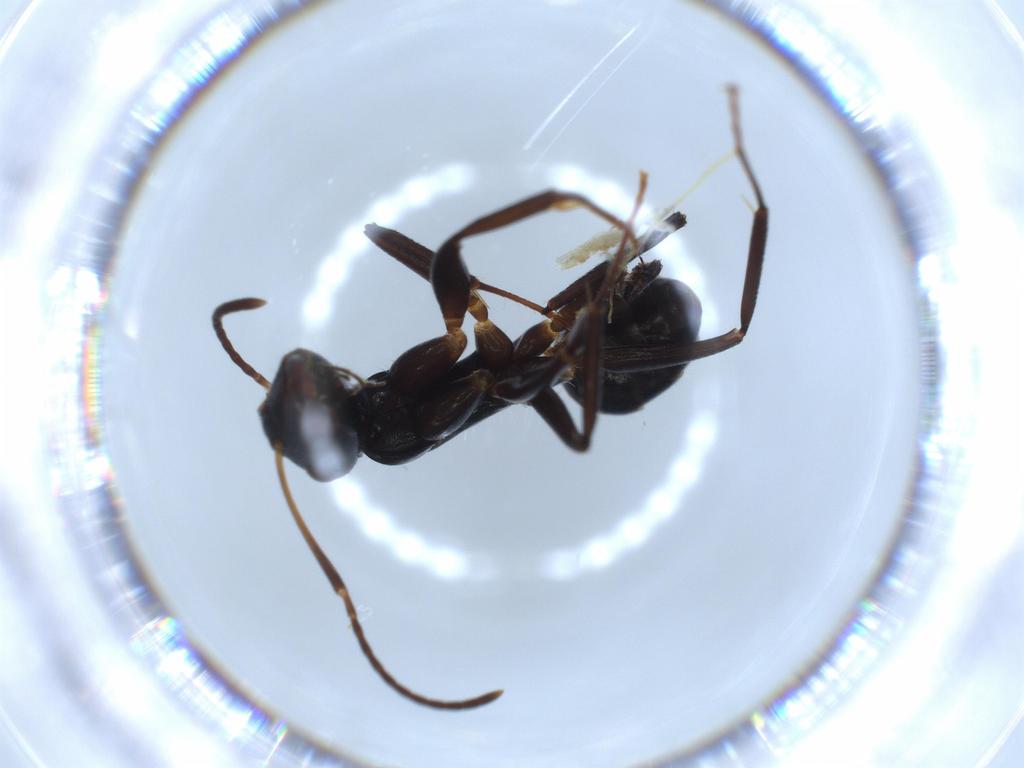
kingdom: Animalia
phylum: Arthropoda
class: Insecta
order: Hymenoptera
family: Formicidae
